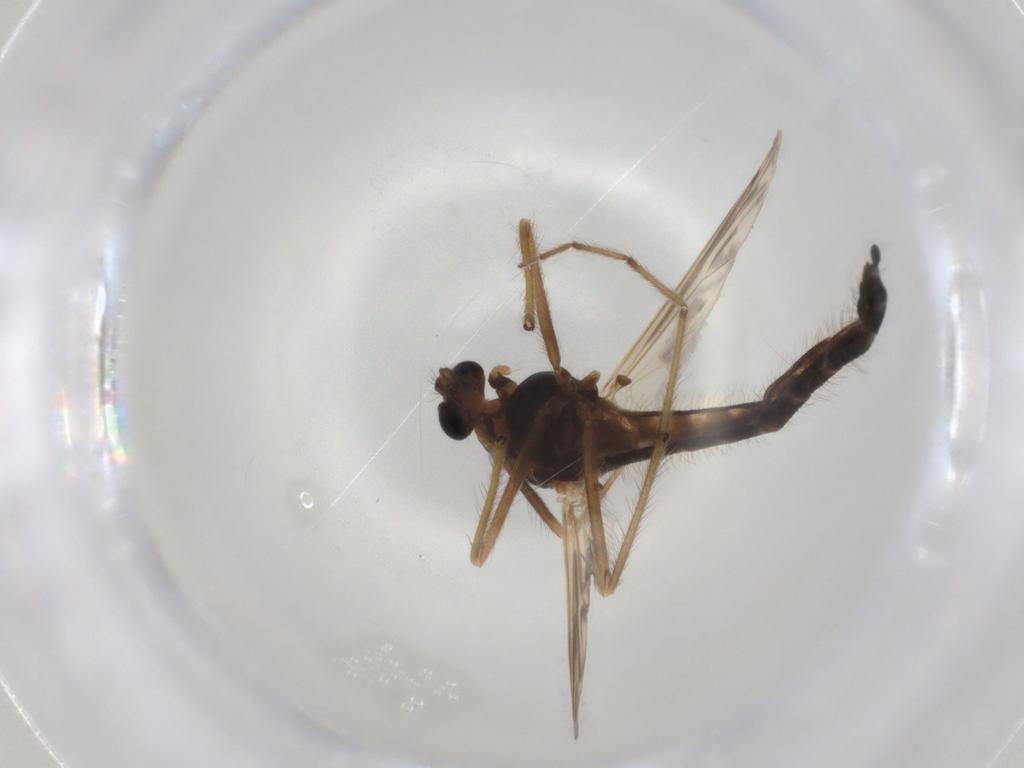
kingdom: Animalia
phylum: Arthropoda
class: Insecta
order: Diptera
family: Chironomidae
